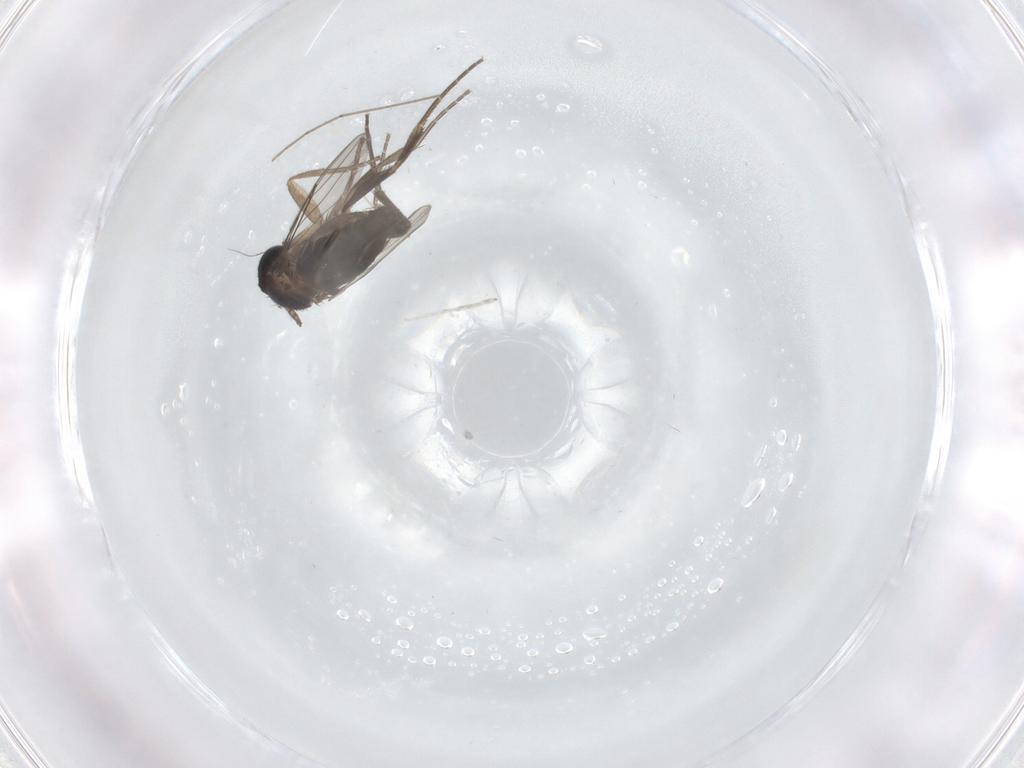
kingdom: Animalia
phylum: Arthropoda
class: Insecta
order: Diptera
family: Phoridae
